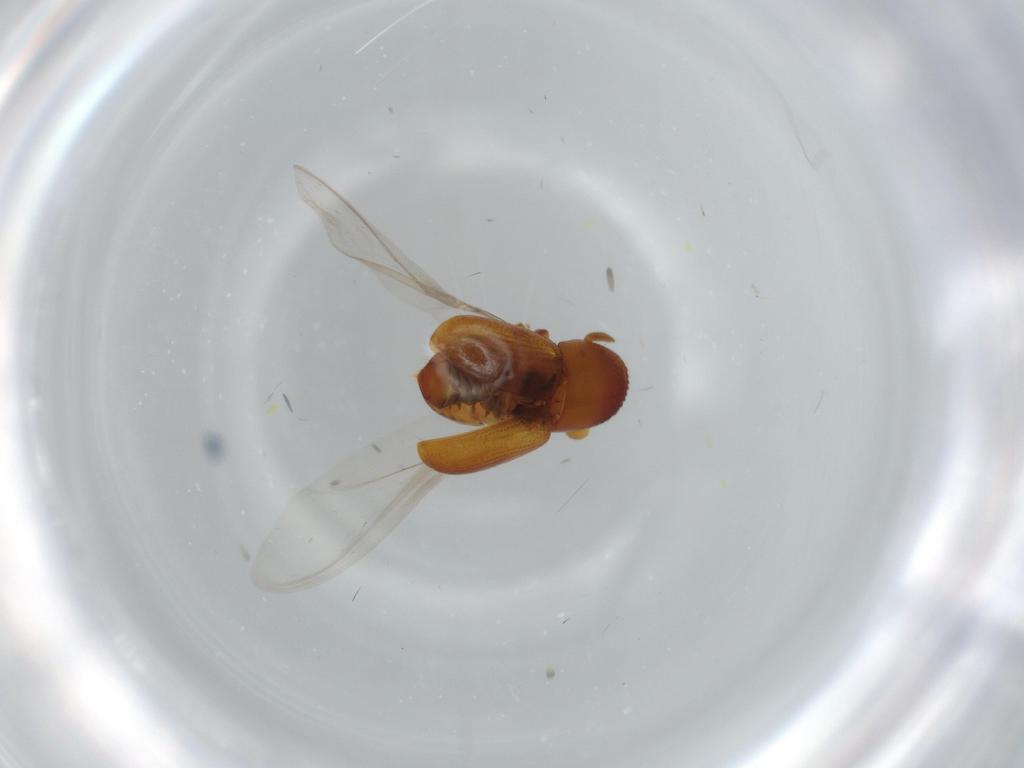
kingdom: Animalia
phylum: Arthropoda
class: Insecta
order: Coleoptera
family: Curculionidae
